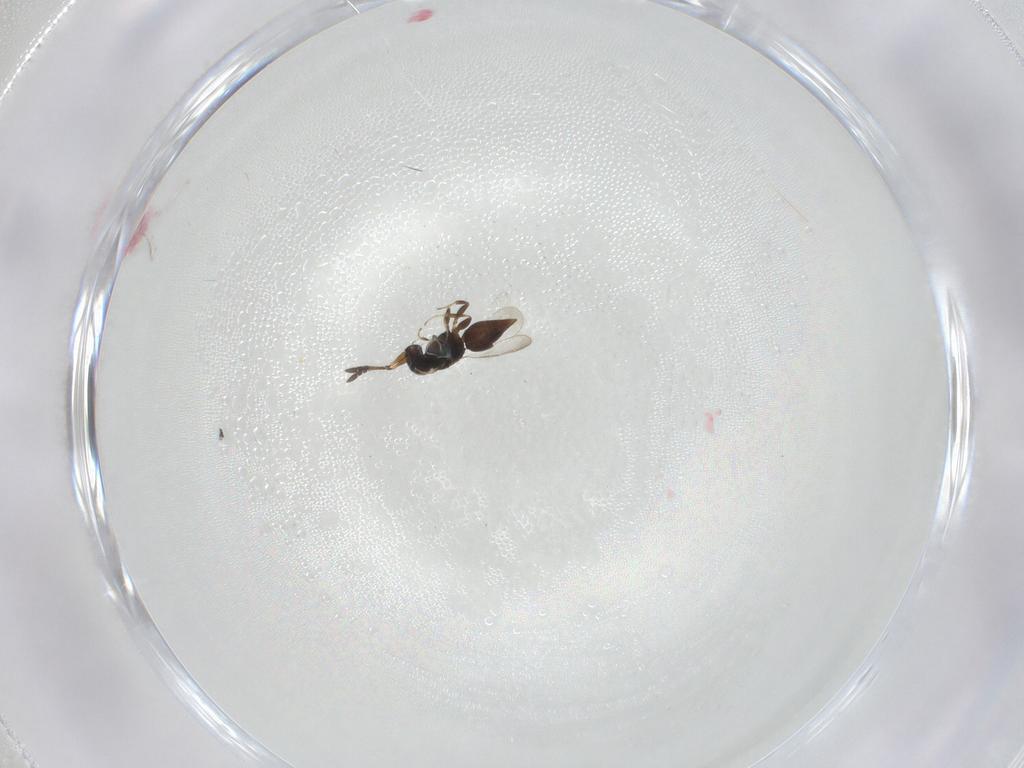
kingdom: Animalia
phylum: Arthropoda
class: Insecta
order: Hymenoptera
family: Ceraphronidae
